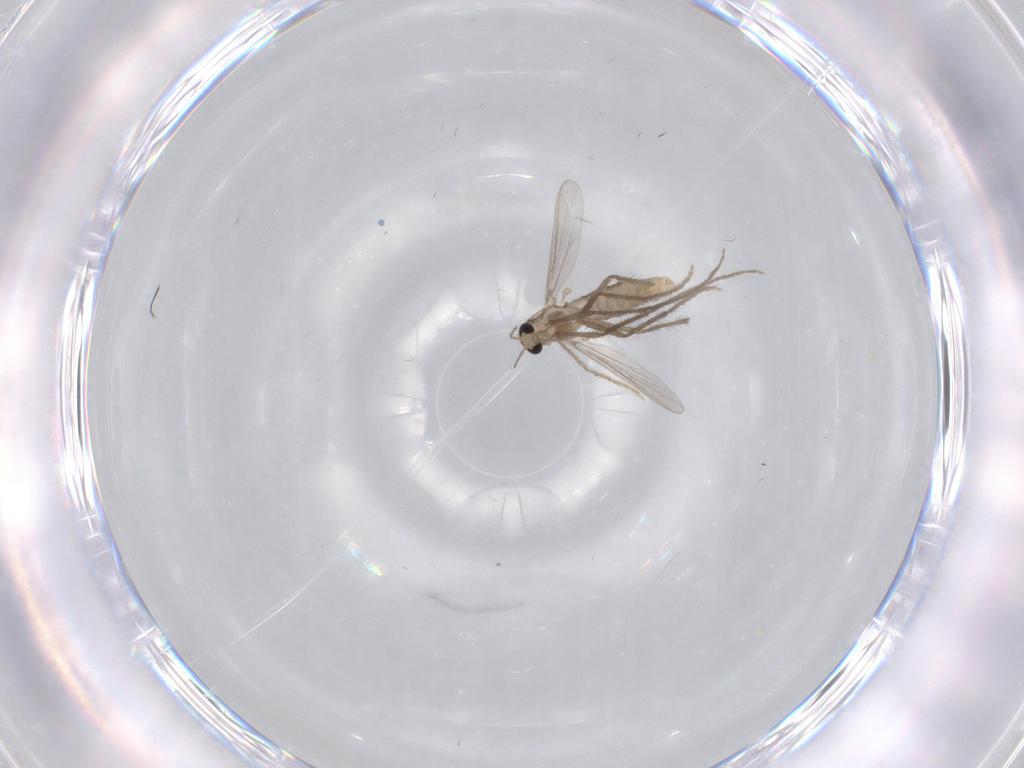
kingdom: Animalia
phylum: Arthropoda
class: Insecta
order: Diptera
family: Chironomidae
